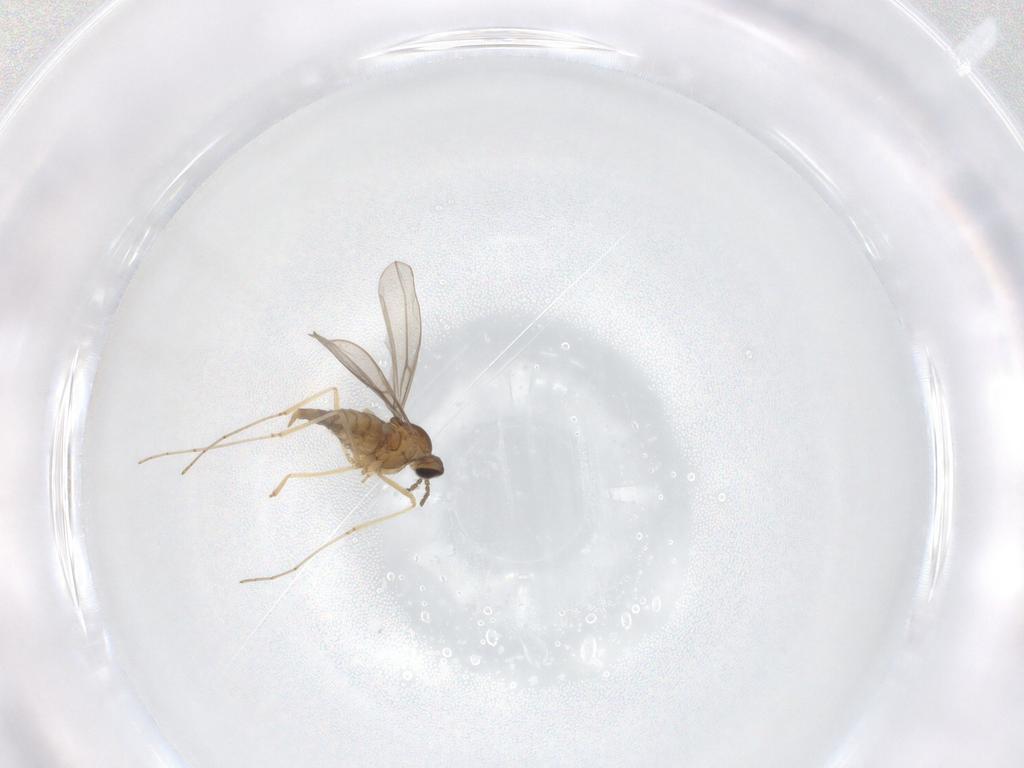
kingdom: Animalia
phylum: Arthropoda
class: Insecta
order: Diptera
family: Cecidomyiidae
